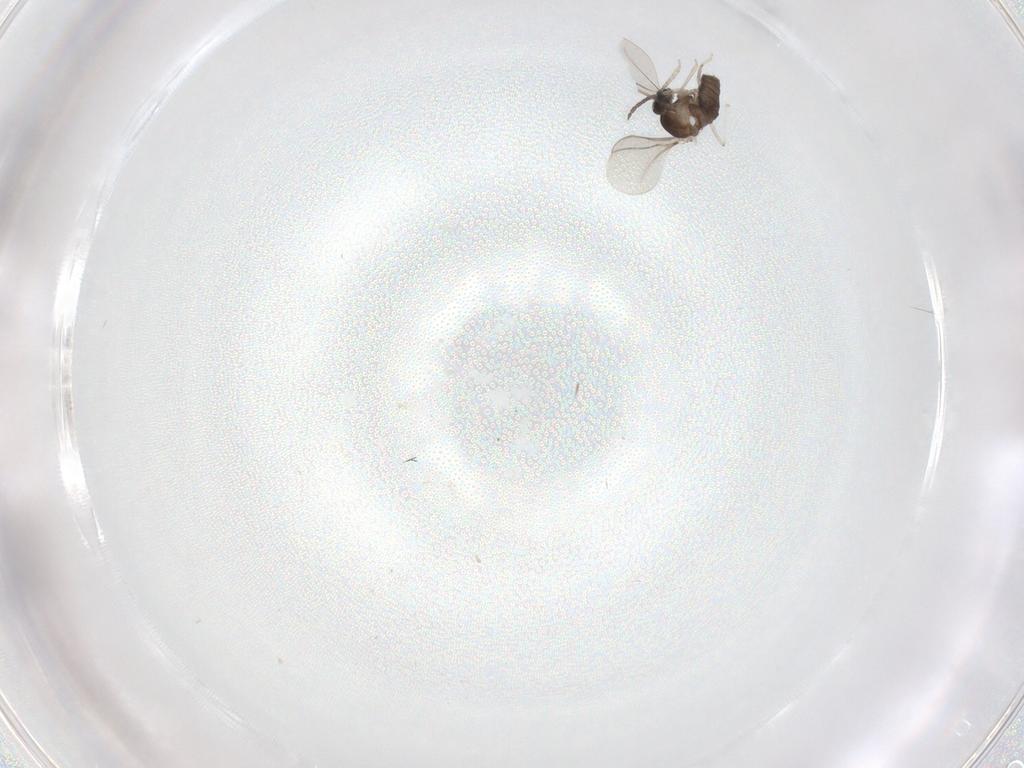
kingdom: Animalia
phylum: Arthropoda
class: Insecta
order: Diptera
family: Cecidomyiidae
